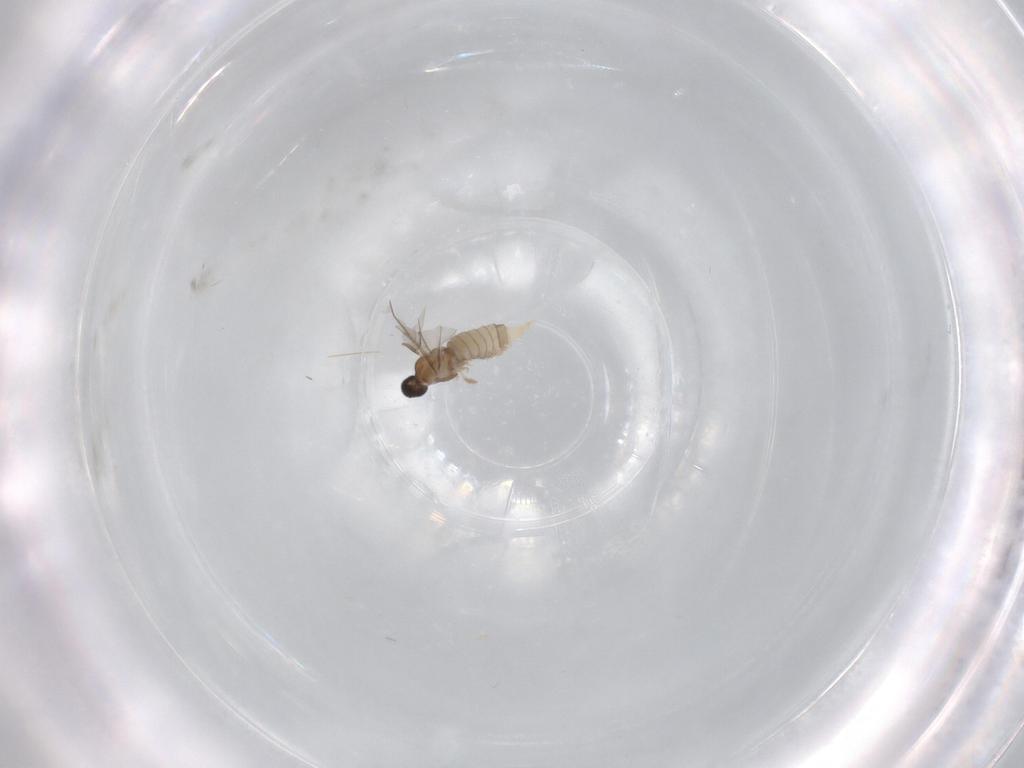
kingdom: Animalia
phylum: Arthropoda
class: Insecta
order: Diptera
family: Cecidomyiidae
